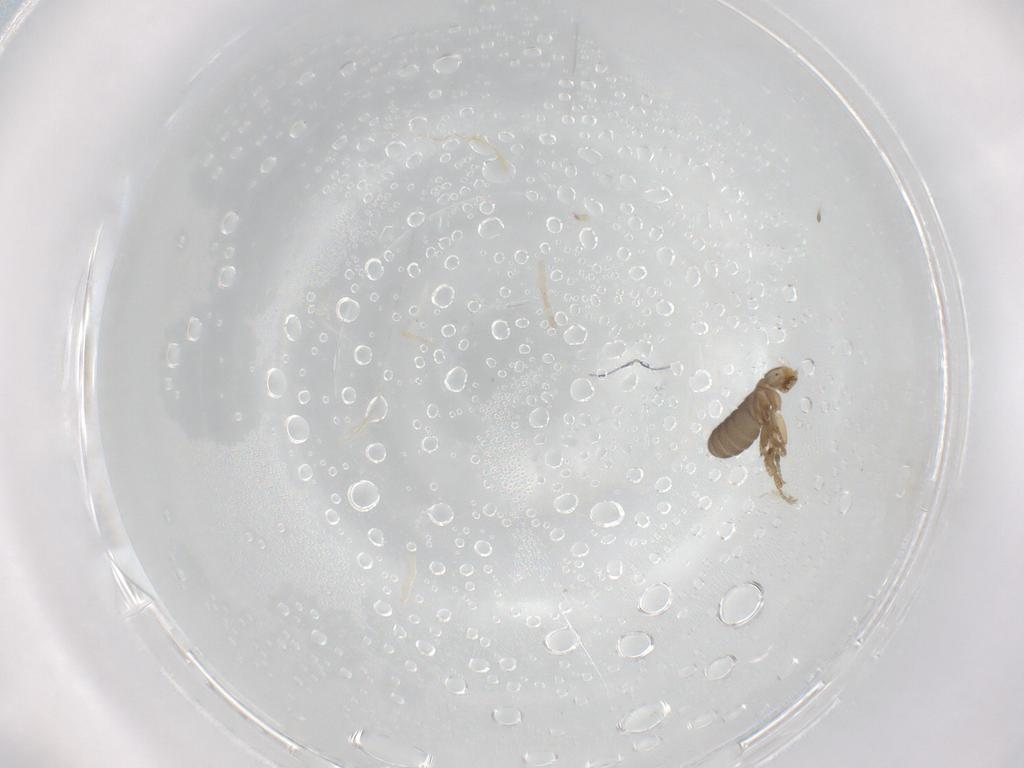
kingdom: Animalia
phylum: Arthropoda
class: Insecta
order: Diptera
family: Phoridae
